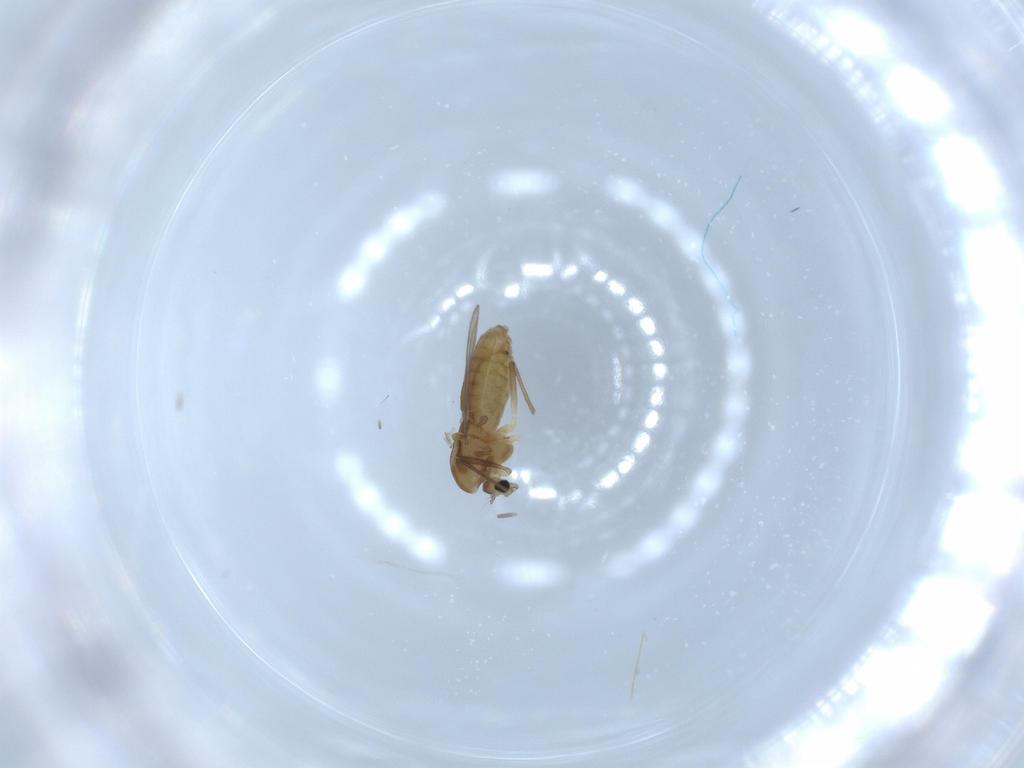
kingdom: Animalia
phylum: Arthropoda
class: Insecta
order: Diptera
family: Chironomidae
